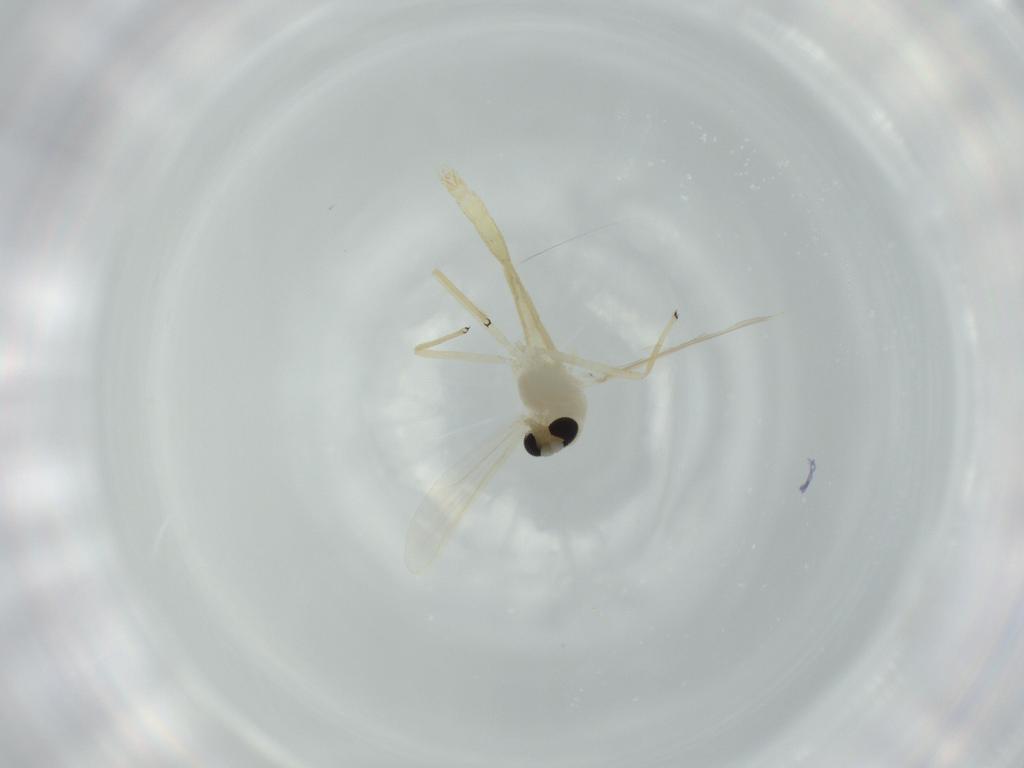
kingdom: Animalia
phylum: Arthropoda
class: Insecta
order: Diptera
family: Chironomidae
